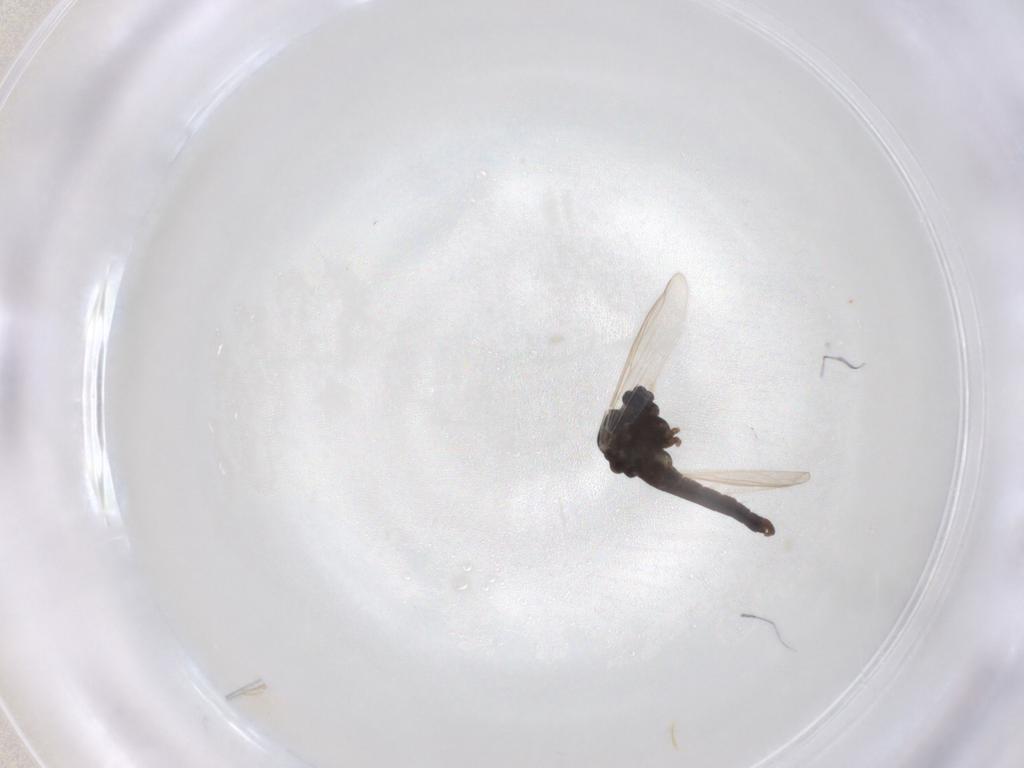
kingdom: Animalia
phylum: Arthropoda
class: Insecta
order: Diptera
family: Chironomidae
